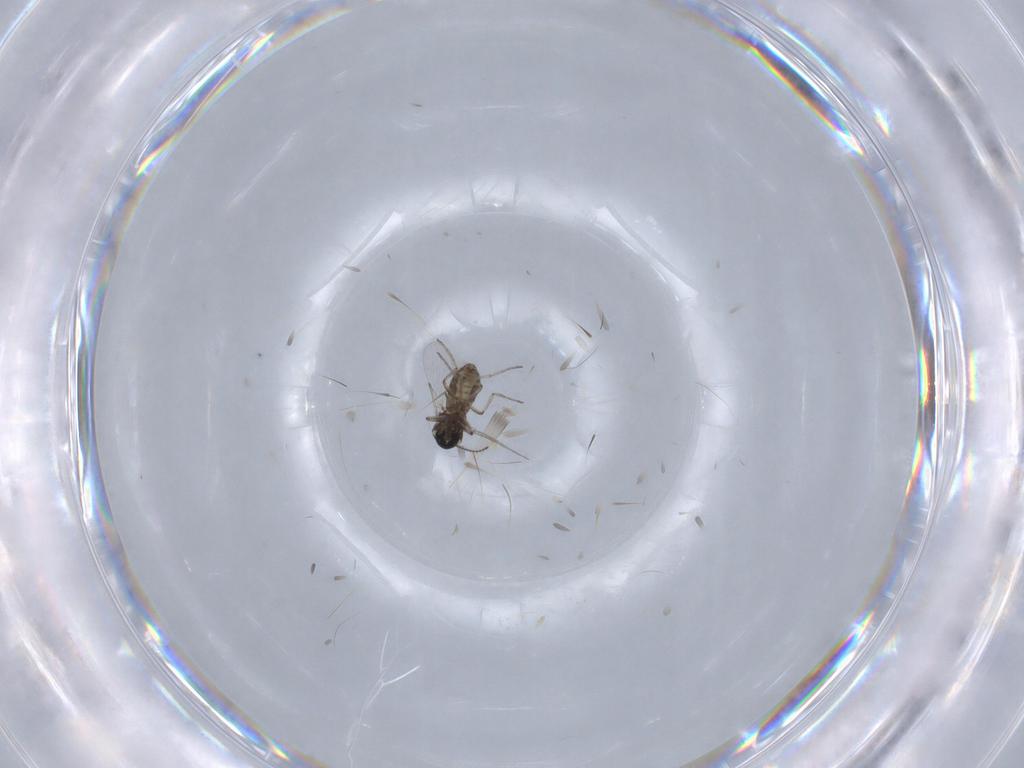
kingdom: Animalia
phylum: Arthropoda
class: Insecta
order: Diptera
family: Ceratopogonidae
